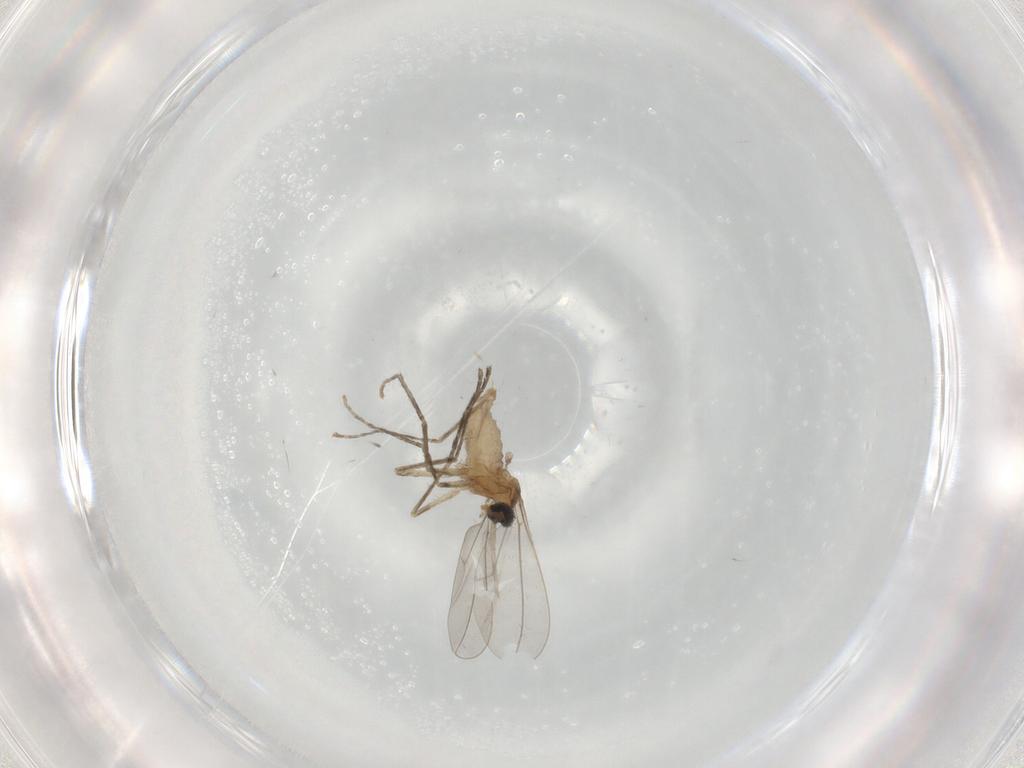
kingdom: Animalia
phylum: Arthropoda
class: Insecta
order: Diptera
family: Cecidomyiidae
